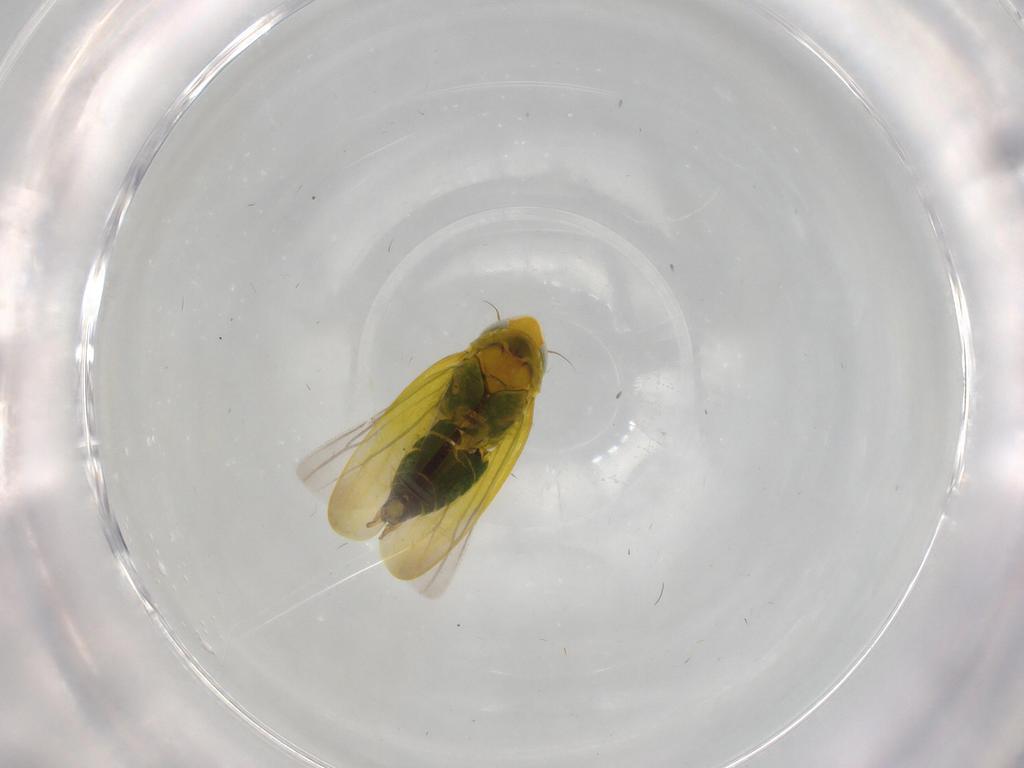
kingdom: Animalia
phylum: Arthropoda
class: Insecta
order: Hemiptera
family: Cicadellidae
